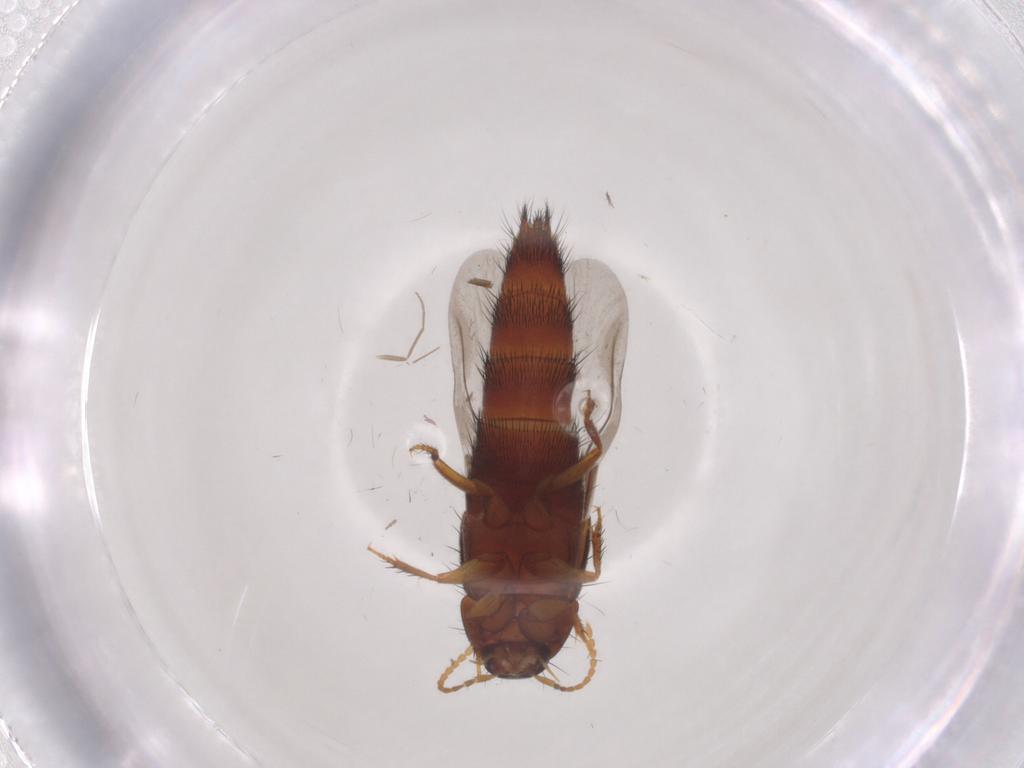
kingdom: Animalia
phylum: Arthropoda
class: Insecta
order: Coleoptera
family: Staphylinidae
